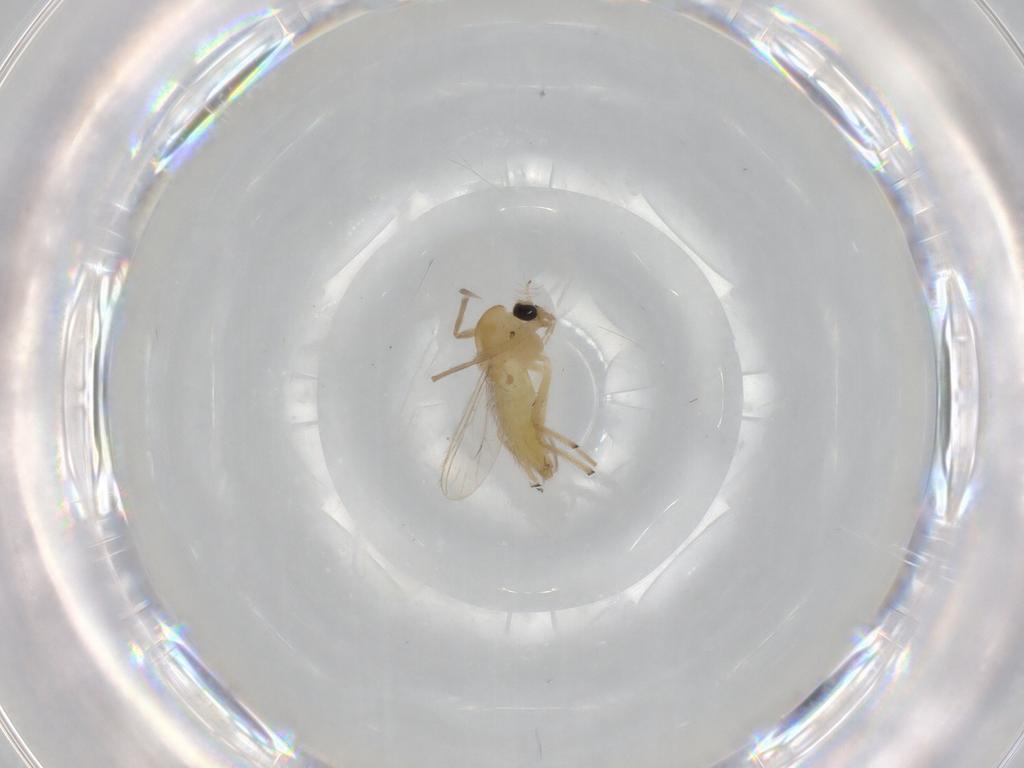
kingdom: Animalia
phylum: Arthropoda
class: Insecta
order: Diptera
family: Chironomidae
